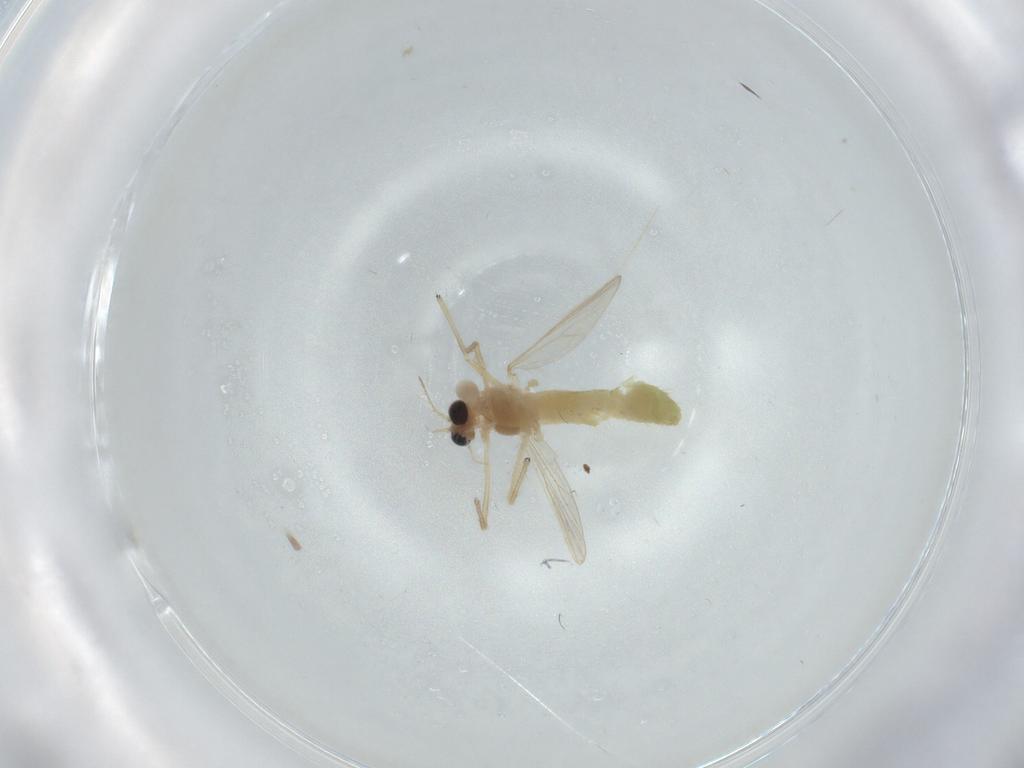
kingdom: Animalia
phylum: Arthropoda
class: Insecta
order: Diptera
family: Chironomidae
